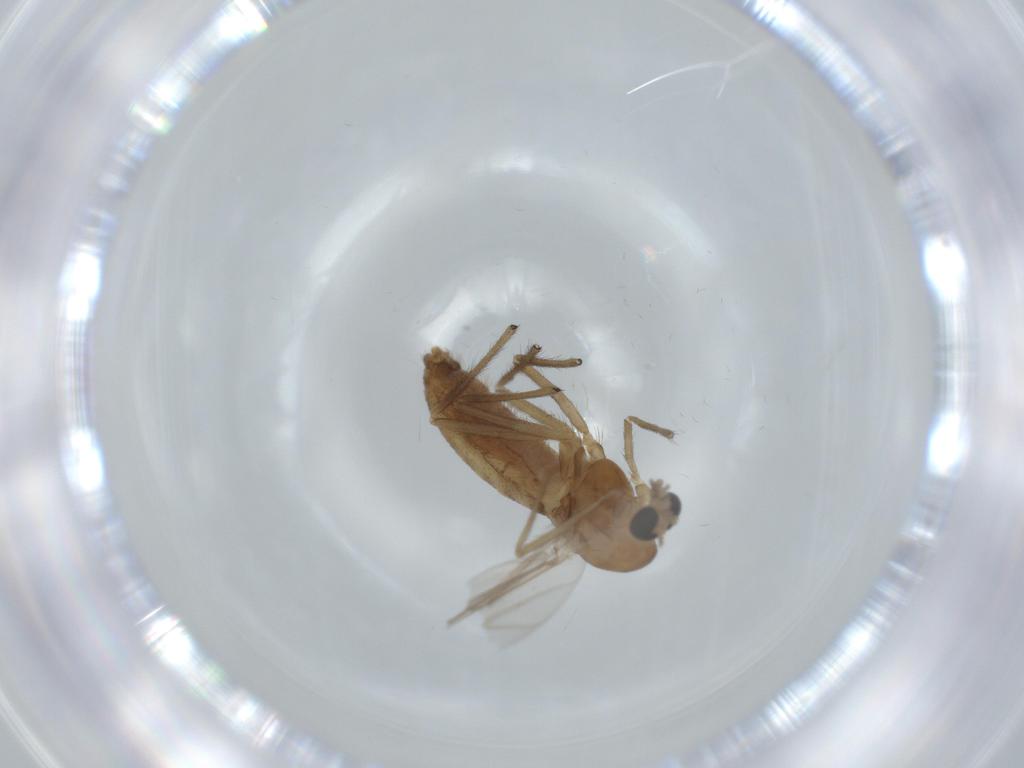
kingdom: Animalia
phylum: Arthropoda
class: Insecta
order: Diptera
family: Chironomidae
